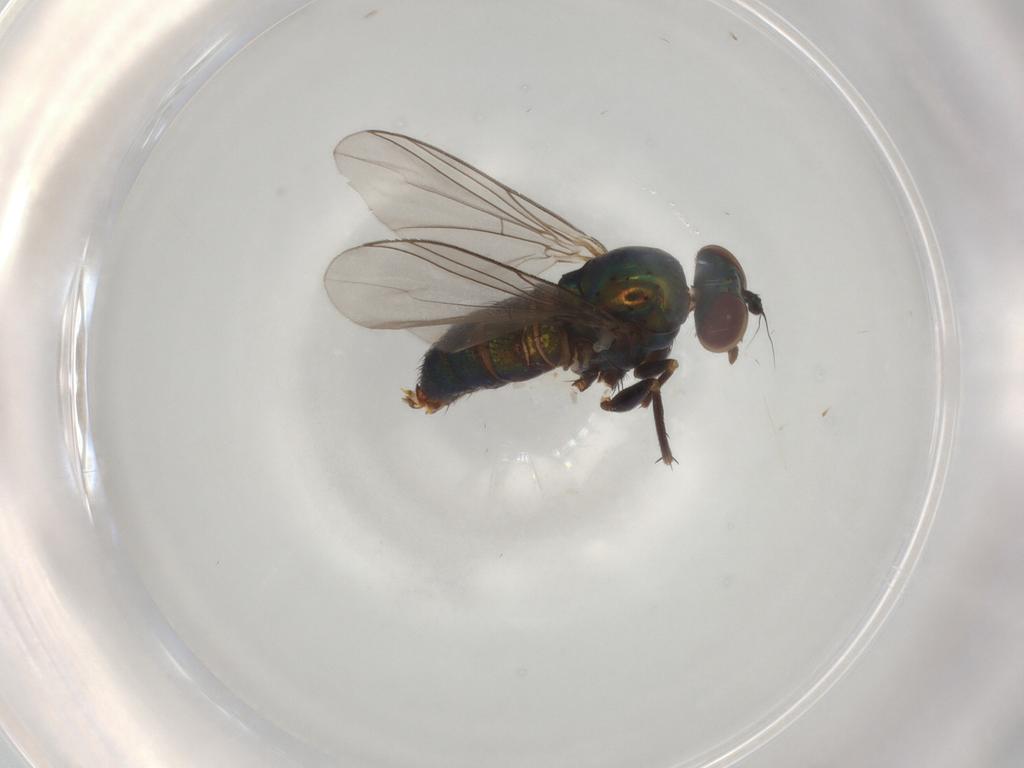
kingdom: Animalia
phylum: Arthropoda
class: Insecta
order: Diptera
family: Dolichopodidae
